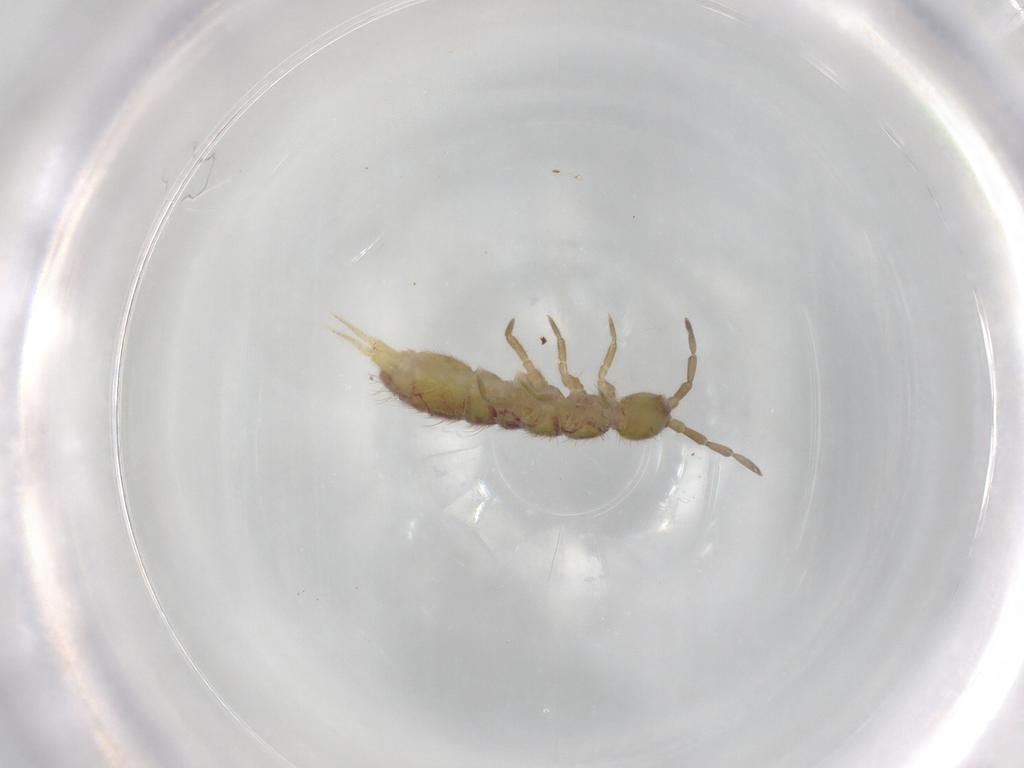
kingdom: Animalia
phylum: Arthropoda
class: Collembola
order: Entomobryomorpha
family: Isotomidae
